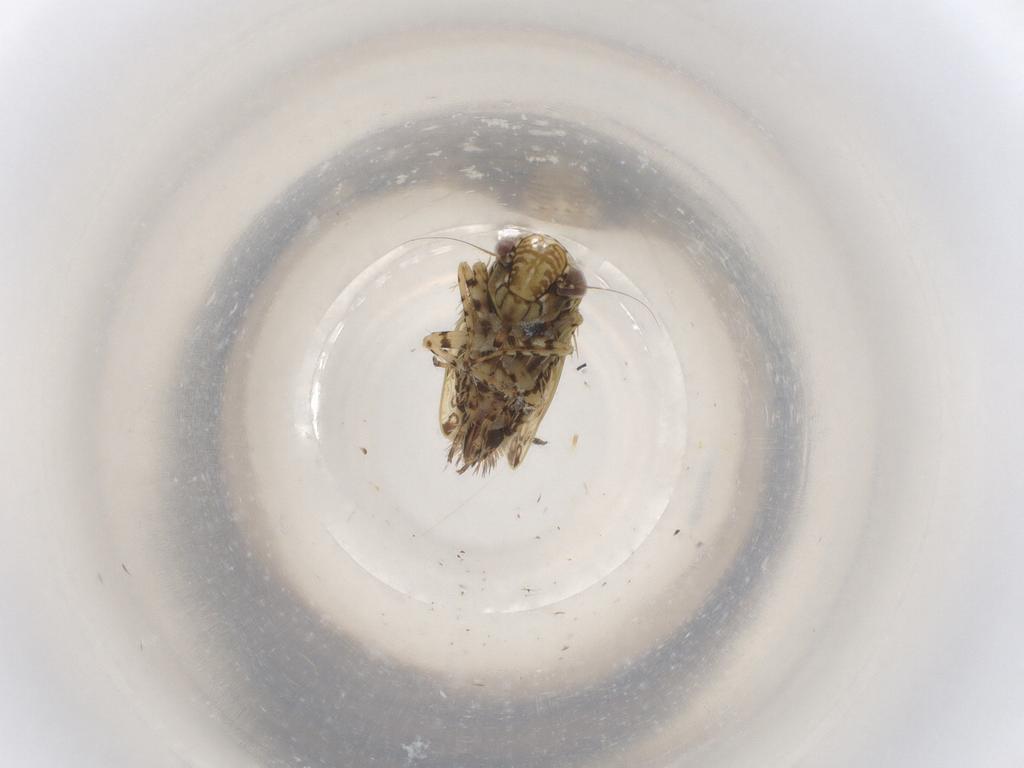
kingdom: Animalia
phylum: Arthropoda
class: Insecta
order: Hemiptera
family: Cicadellidae
